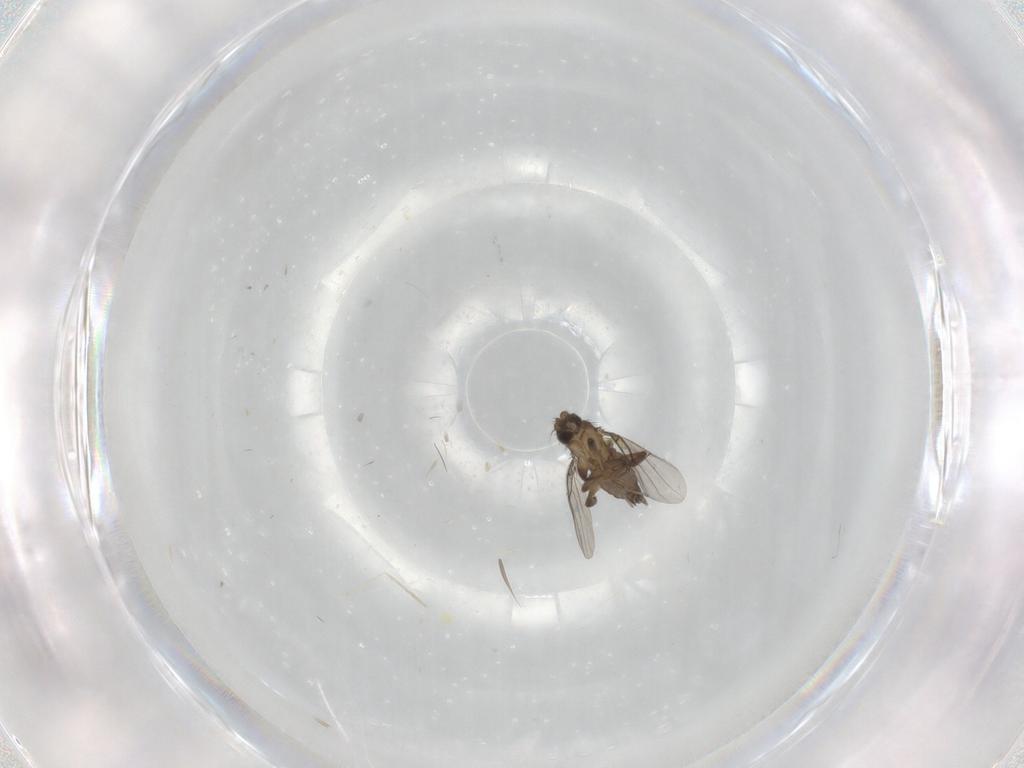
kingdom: Animalia
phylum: Arthropoda
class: Insecta
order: Diptera
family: Phoridae
